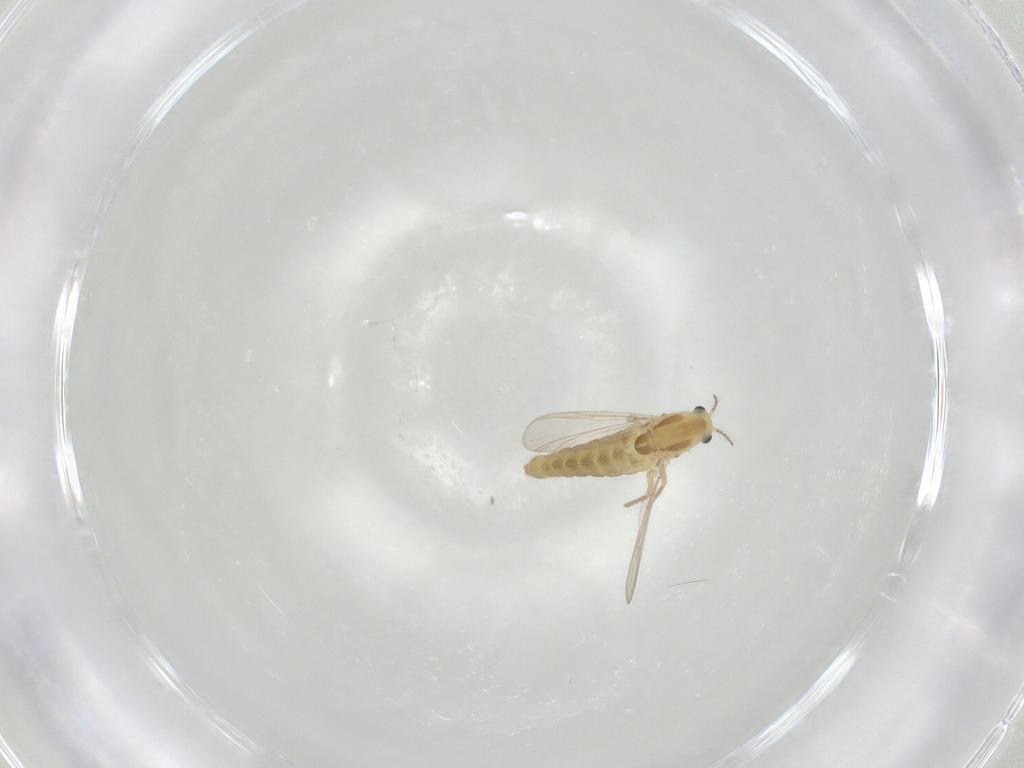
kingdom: Animalia
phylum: Arthropoda
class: Insecta
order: Diptera
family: Chironomidae
